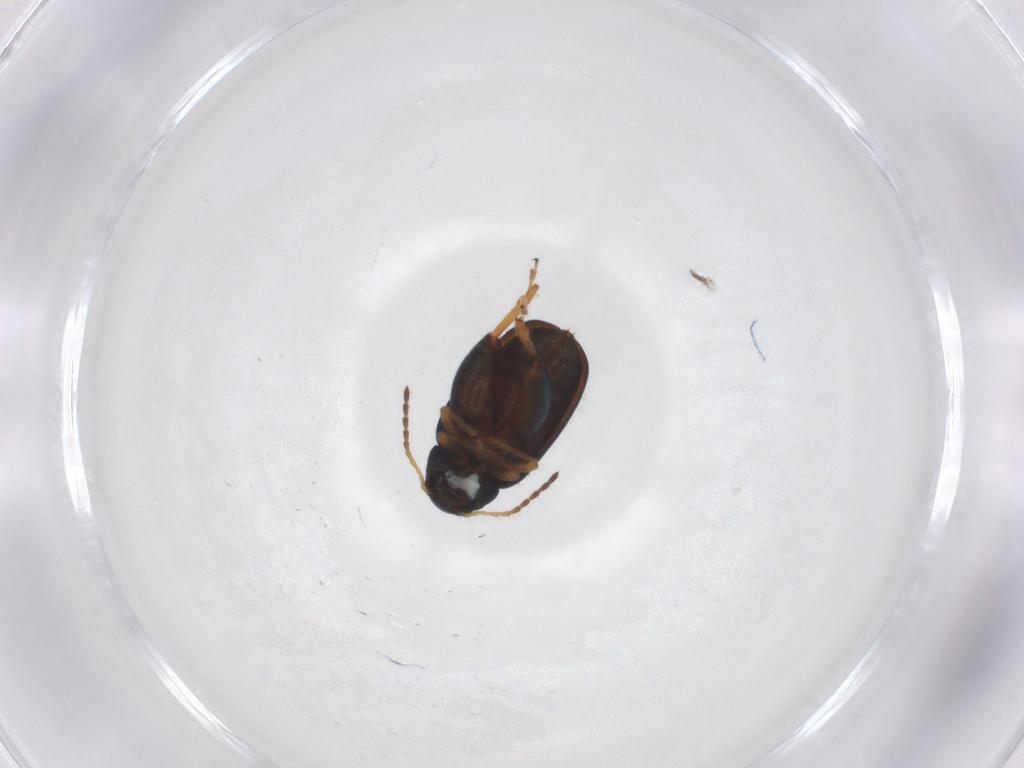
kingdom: Animalia
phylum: Arthropoda
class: Insecta
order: Coleoptera
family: Chrysomelidae
